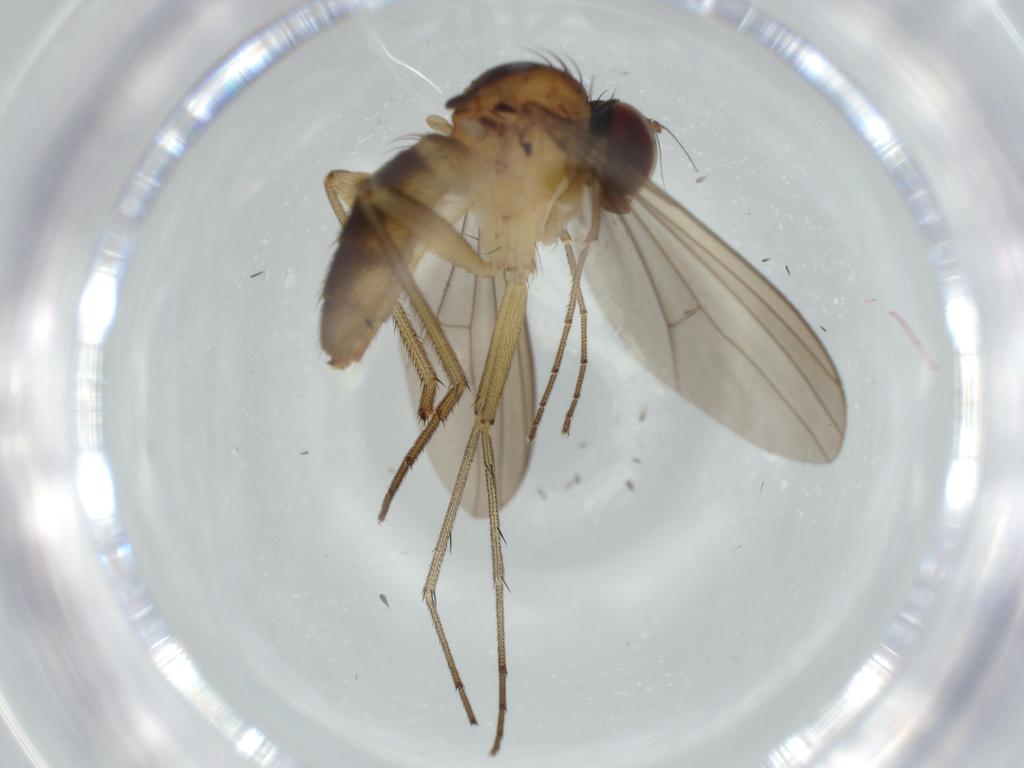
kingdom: Animalia
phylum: Arthropoda
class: Insecta
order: Diptera
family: Dolichopodidae
